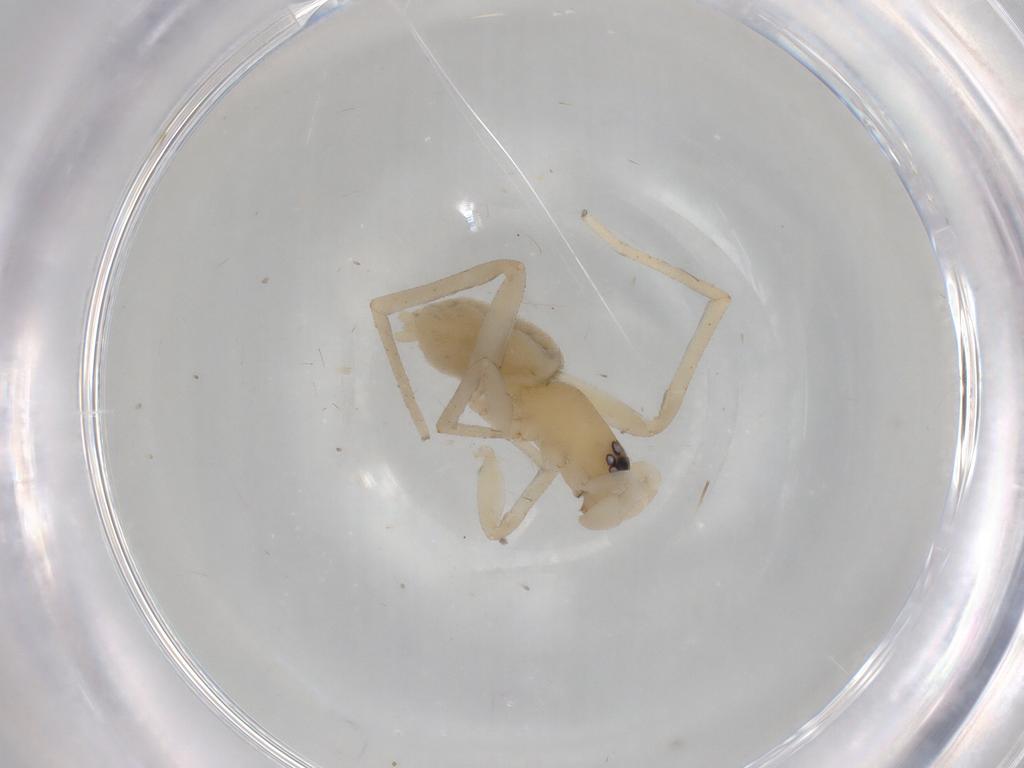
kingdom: Animalia
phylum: Arthropoda
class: Arachnida
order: Araneae
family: Gnaphosidae
